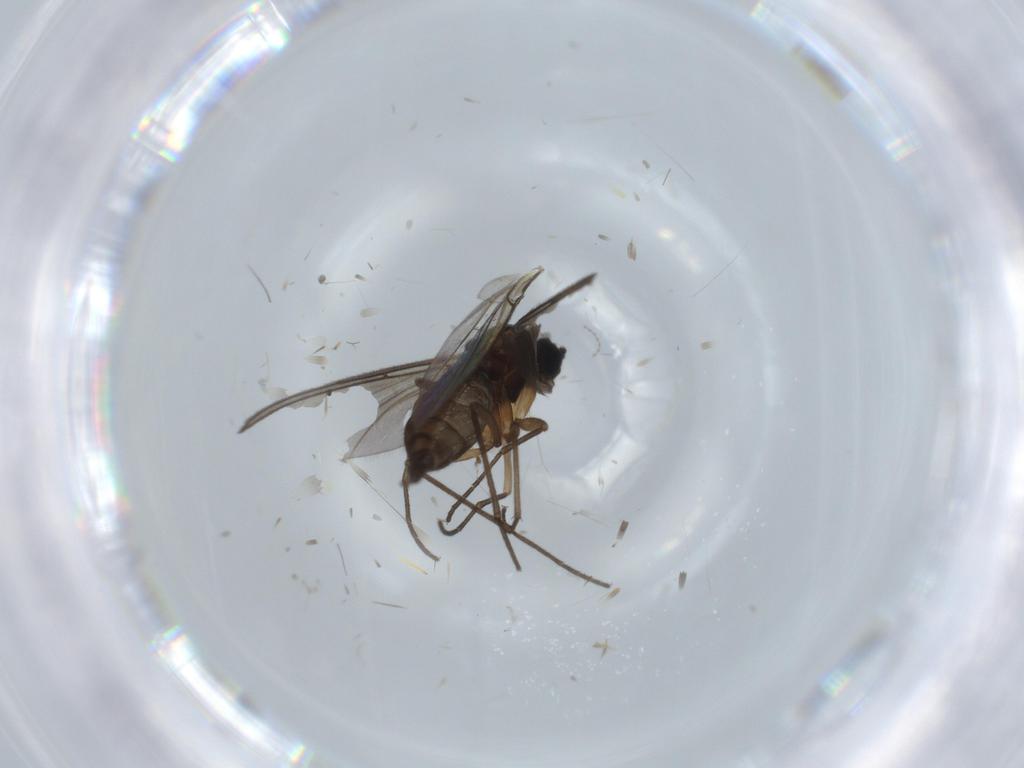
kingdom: Animalia
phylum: Arthropoda
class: Insecta
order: Diptera
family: Sciaridae
